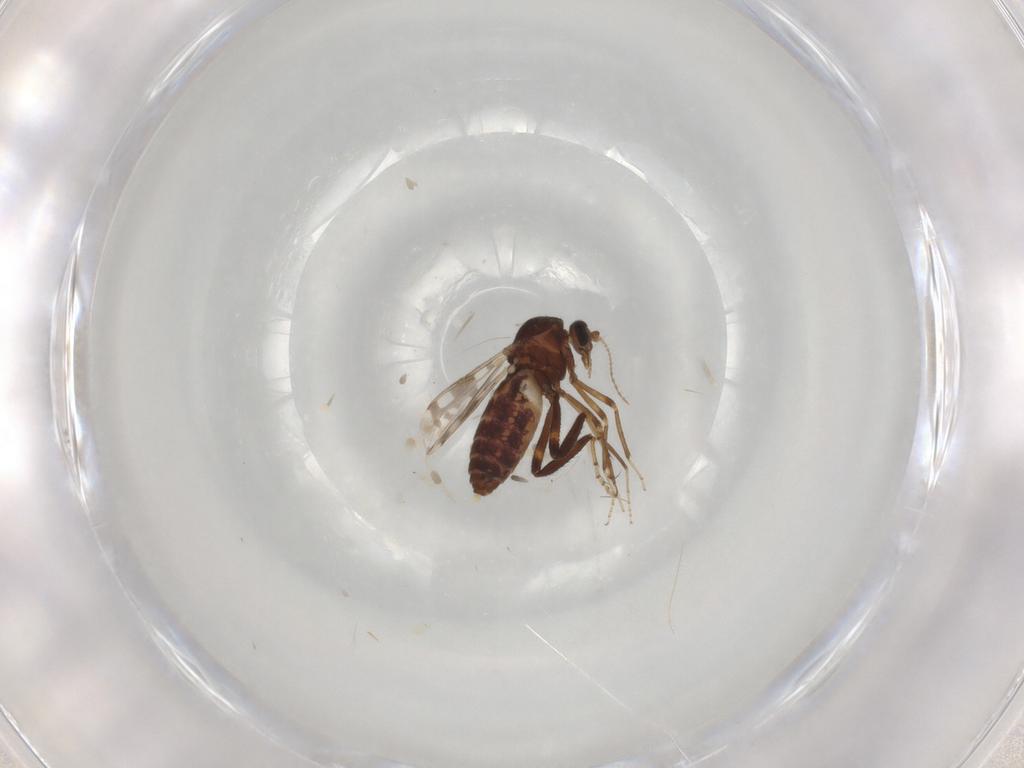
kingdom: Animalia
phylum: Arthropoda
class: Insecta
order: Diptera
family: Ceratopogonidae
